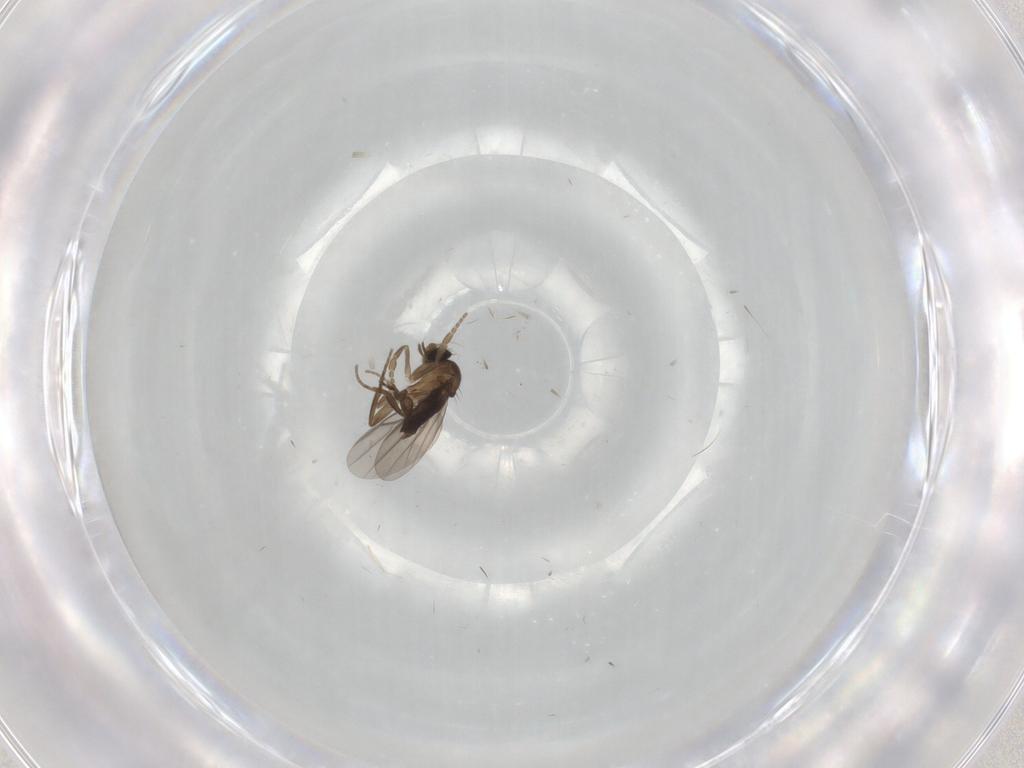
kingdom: Animalia
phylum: Arthropoda
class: Insecta
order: Diptera
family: Phoridae
